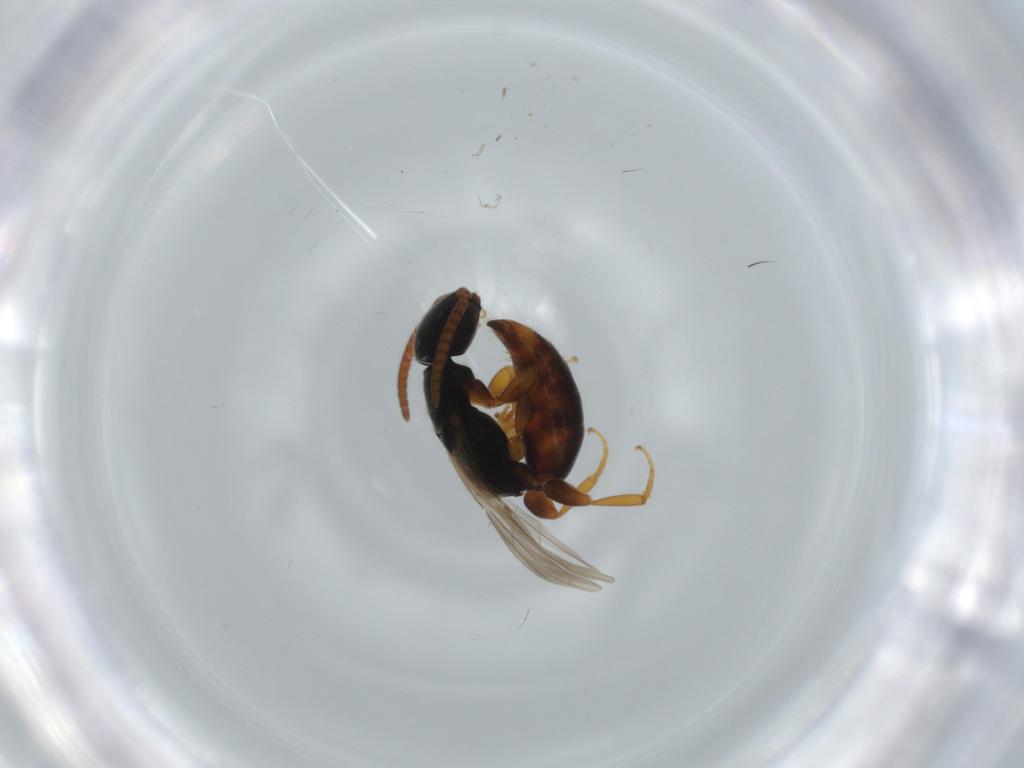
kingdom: Animalia
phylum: Arthropoda
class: Insecta
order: Hymenoptera
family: Bethylidae
